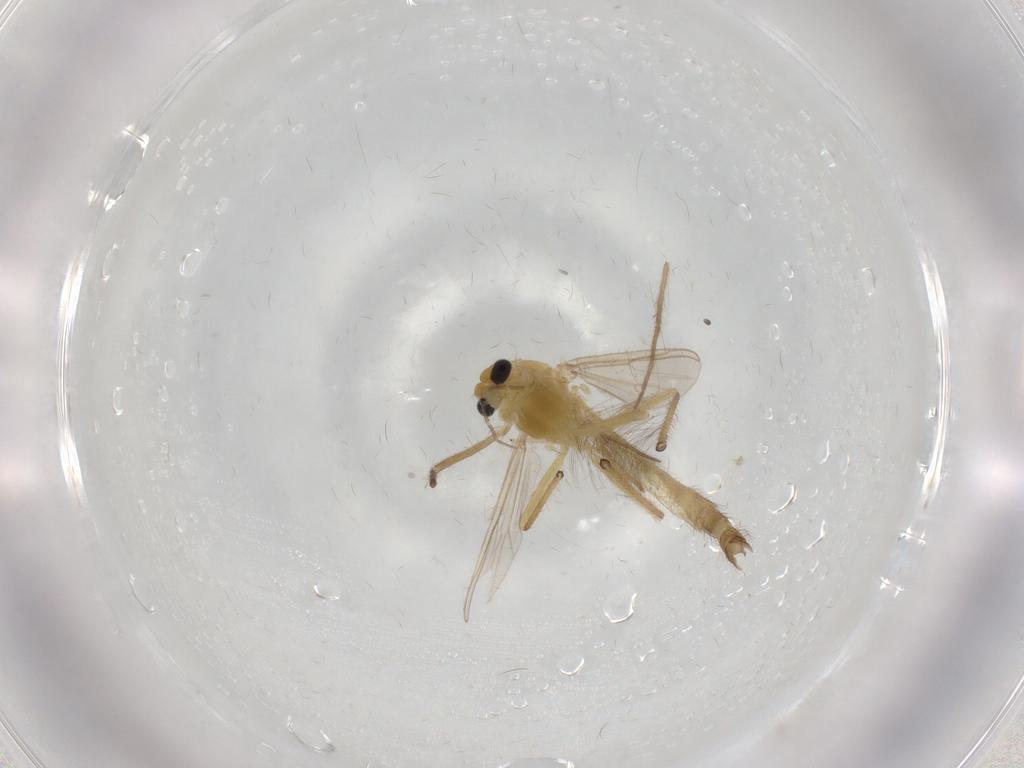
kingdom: Animalia
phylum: Arthropoda
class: Insecta
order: Diptera
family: Chironomidae
